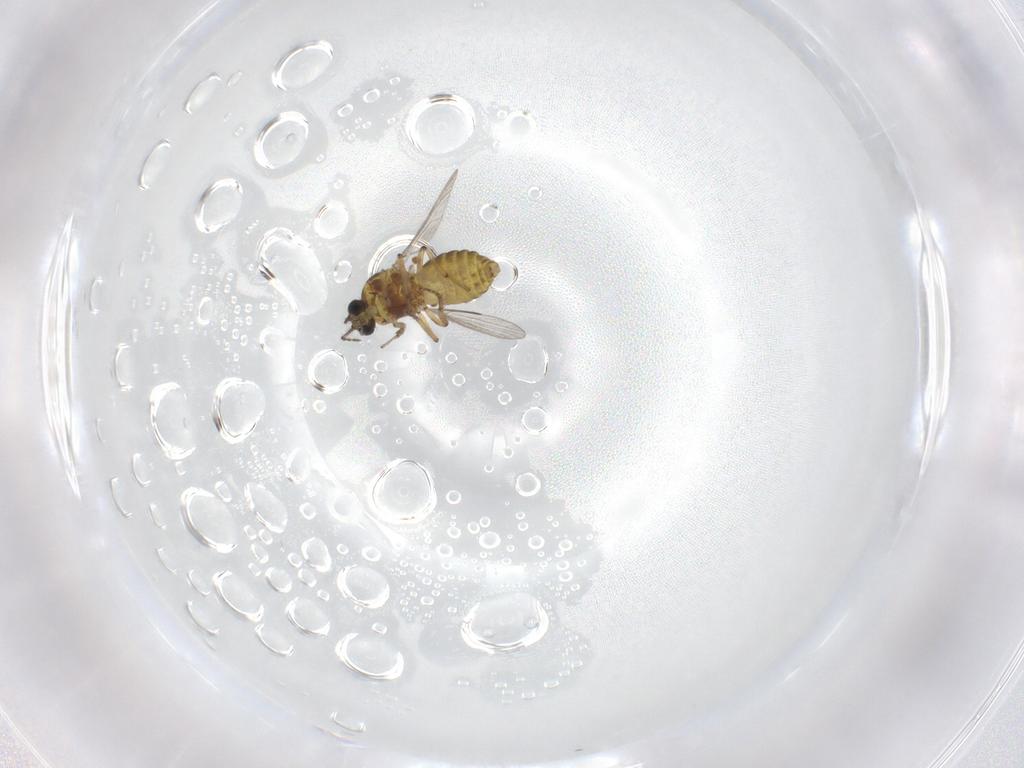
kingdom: Animalia
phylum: Arthropoda
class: Insecta
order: Diptera
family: Ceratopogonidae
